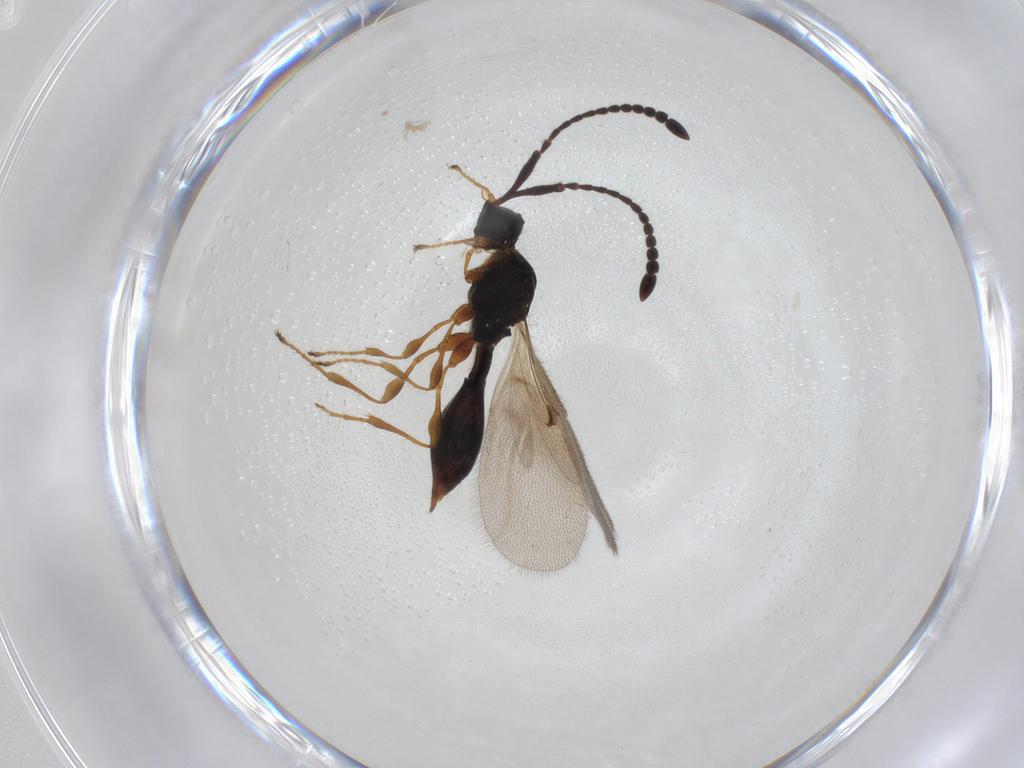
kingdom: Animalia
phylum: Arthropoda
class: Insecta
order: Hymenoptera
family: Diapriidae
